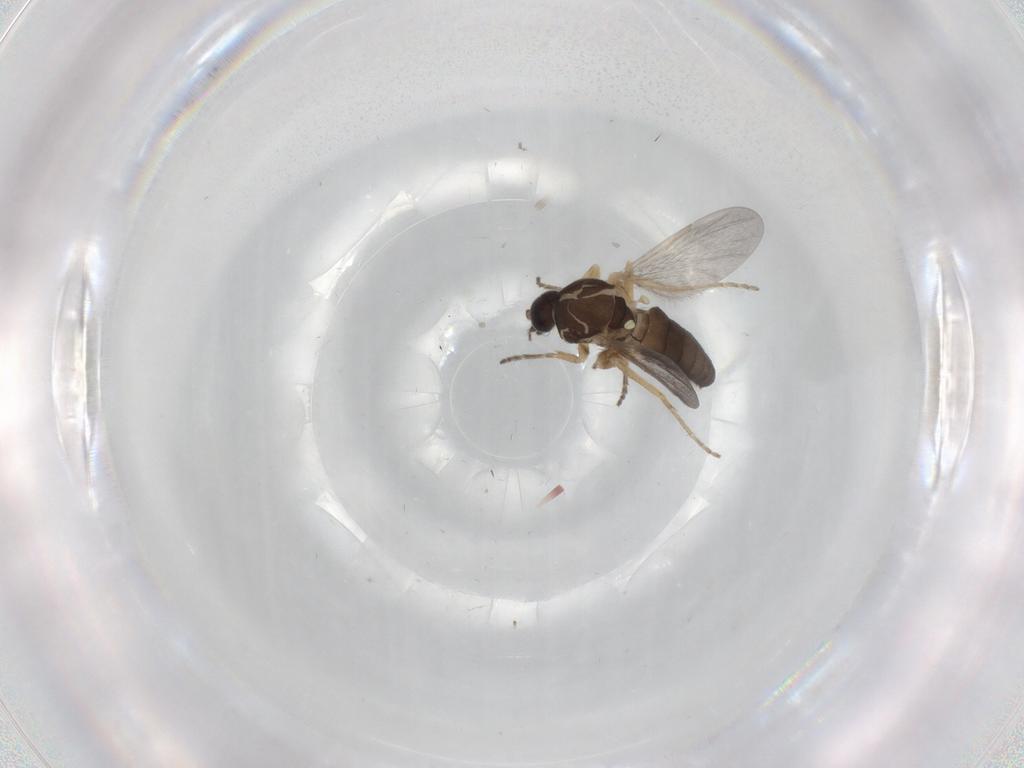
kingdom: Animalia
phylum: Arthropoda
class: Insecta
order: Diptera
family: Ceratopogonidae
